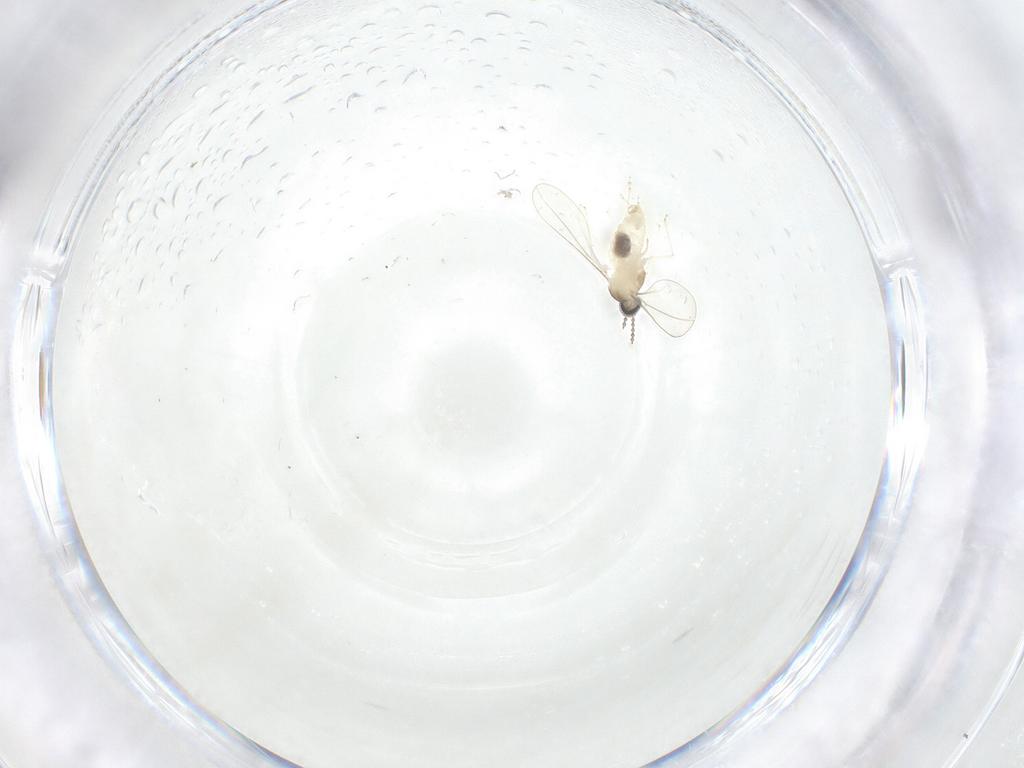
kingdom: Animalia
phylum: Arthropoda
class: Insecta
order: Diptera
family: Cecidomyiidae
